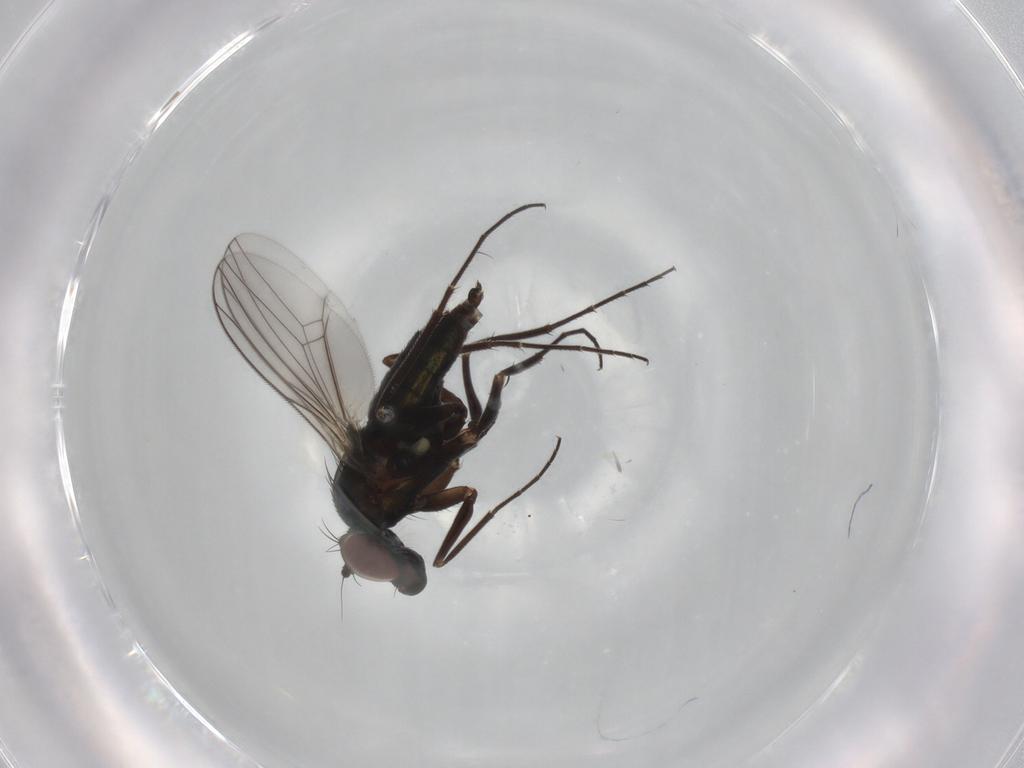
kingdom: Animalia
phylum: Arthropoda
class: Insecta
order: Diptera
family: Dolichopodidae
